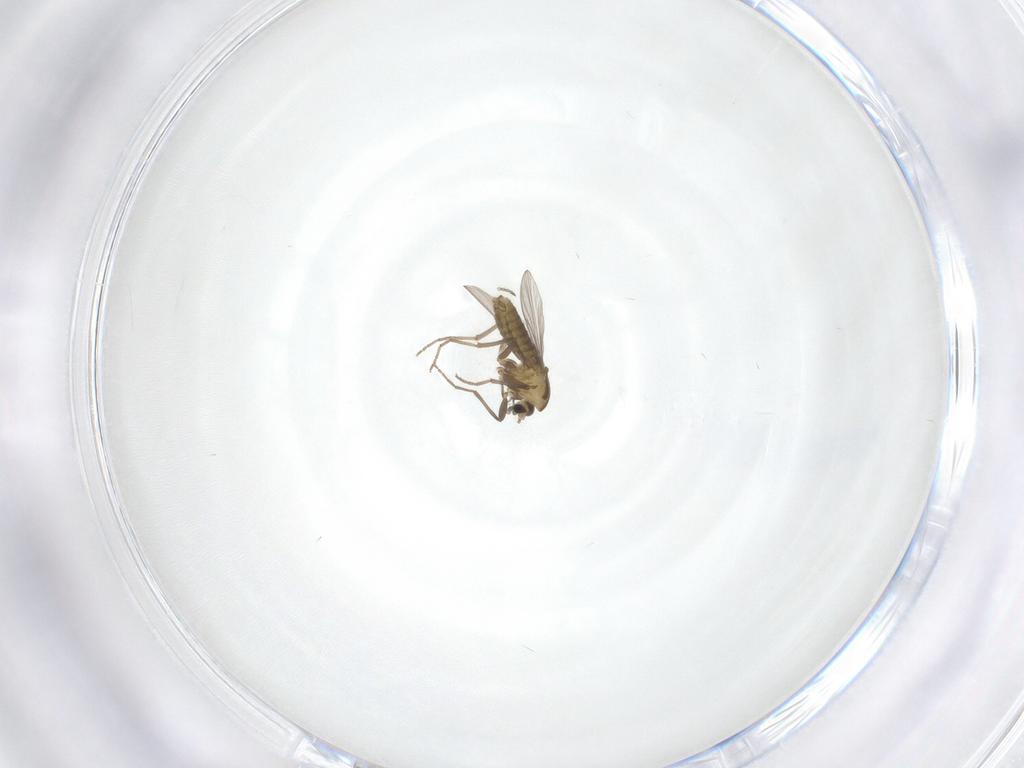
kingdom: Animalia
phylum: Arthropoda
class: Insecta
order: Diptera
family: Chironomidae
